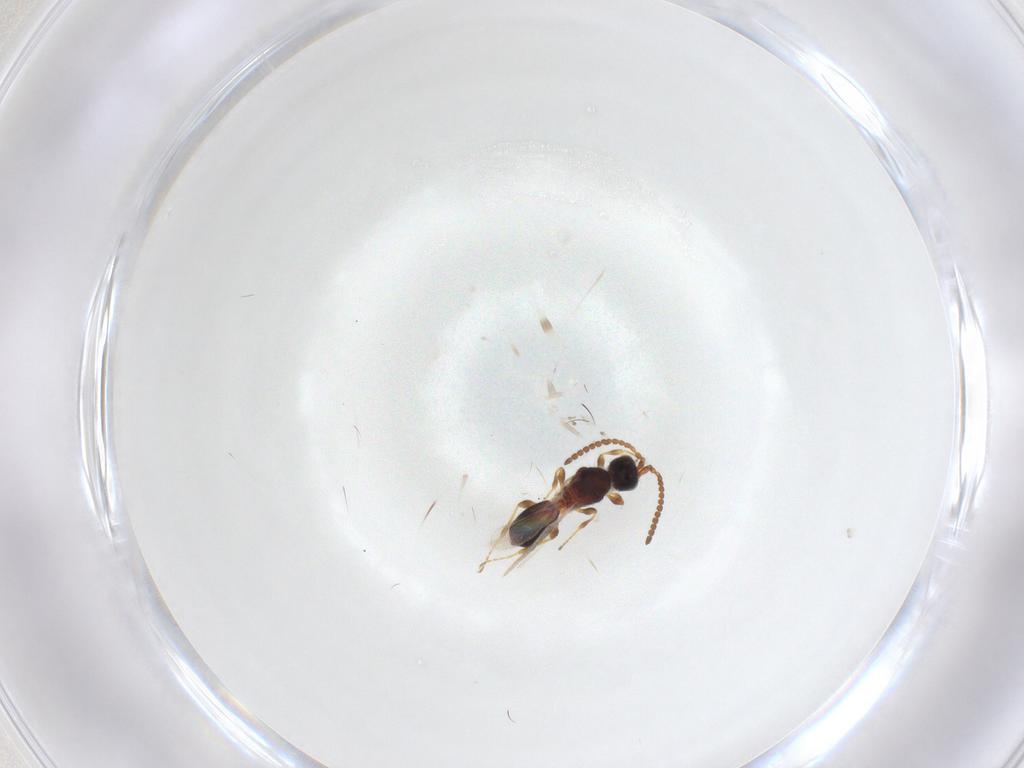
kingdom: Animalia
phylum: Arthropoda
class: Insecta
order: Hymenoptera
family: Diapriidae
